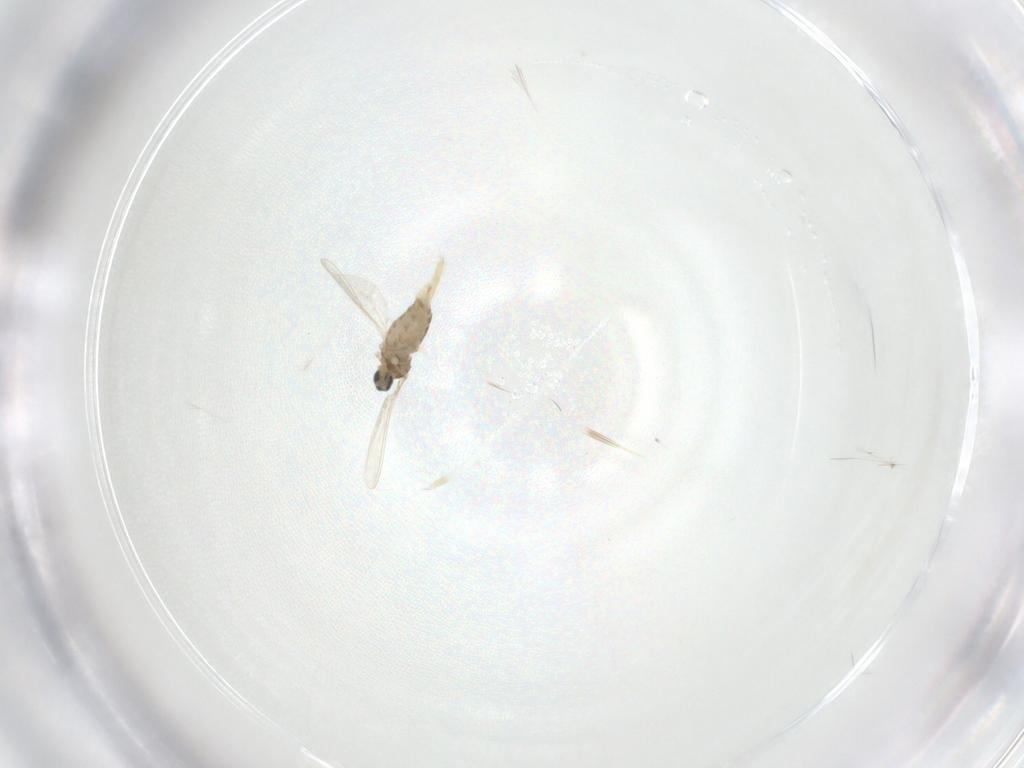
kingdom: Animalia
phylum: Arthropoda
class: Insecta
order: Diptera
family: Cecidomyiidae
